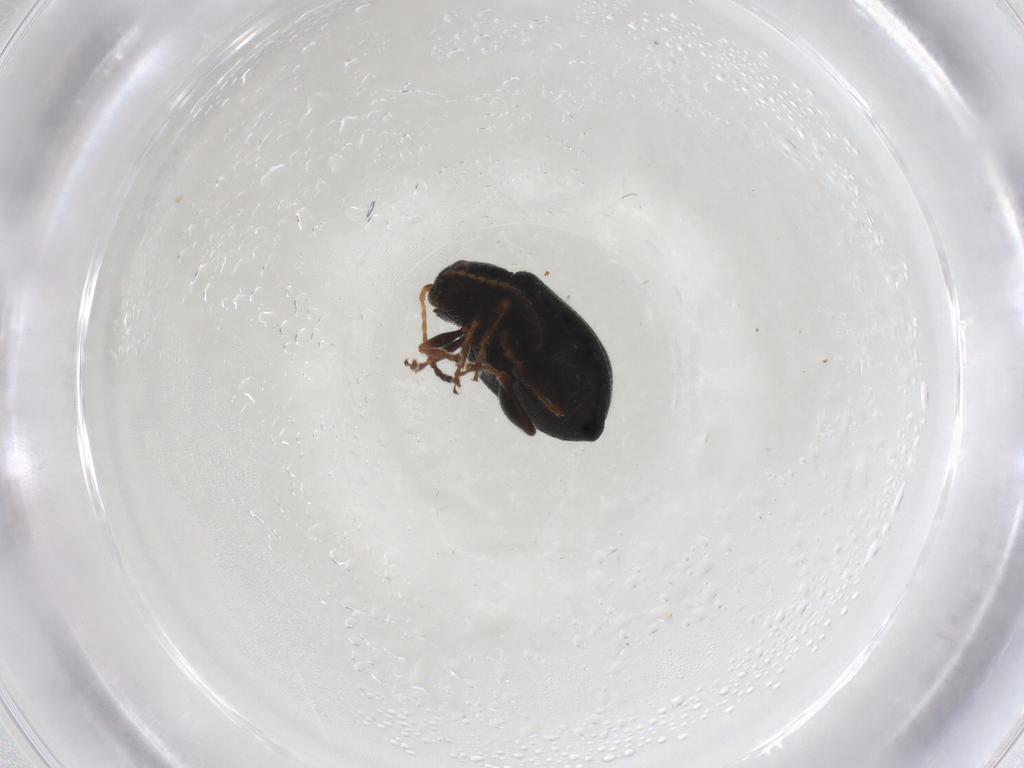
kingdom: Animalia
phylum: Arthropoda
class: Insecta
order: Coleoptera
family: Chrysomelidae
